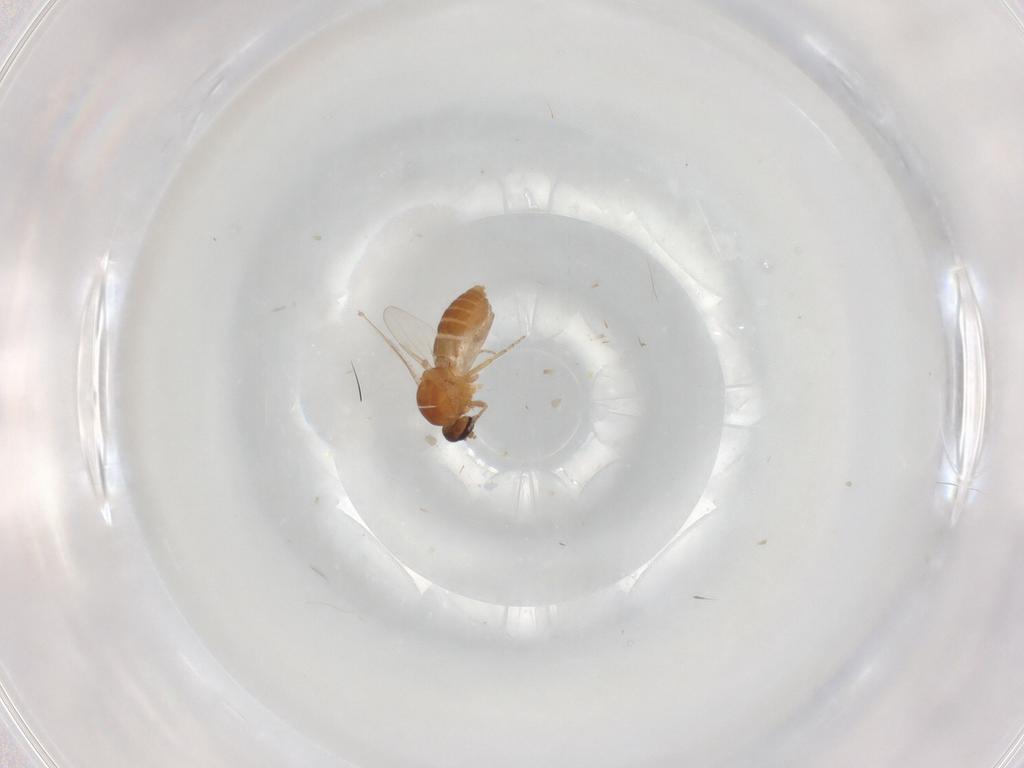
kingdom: Animalia
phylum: Arthropoda
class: Insecta
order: Diptera
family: Ceratopogonidae
